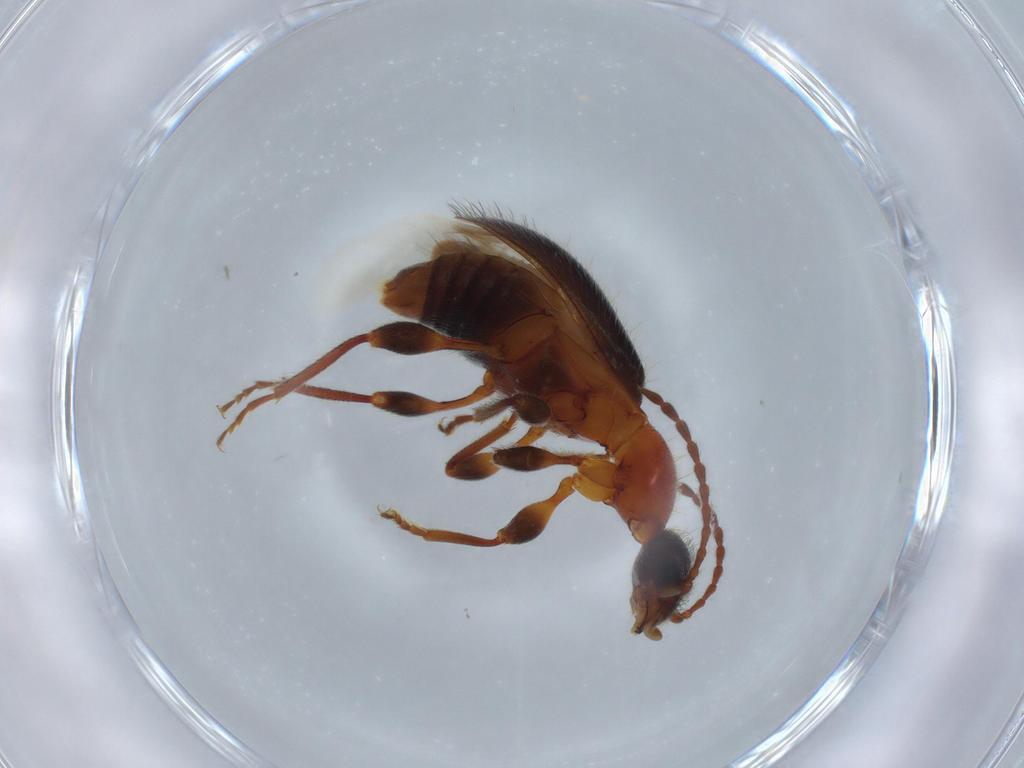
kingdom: Animalia
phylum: Arthropoda
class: Insecta
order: Coleoptera
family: Anthicidae
